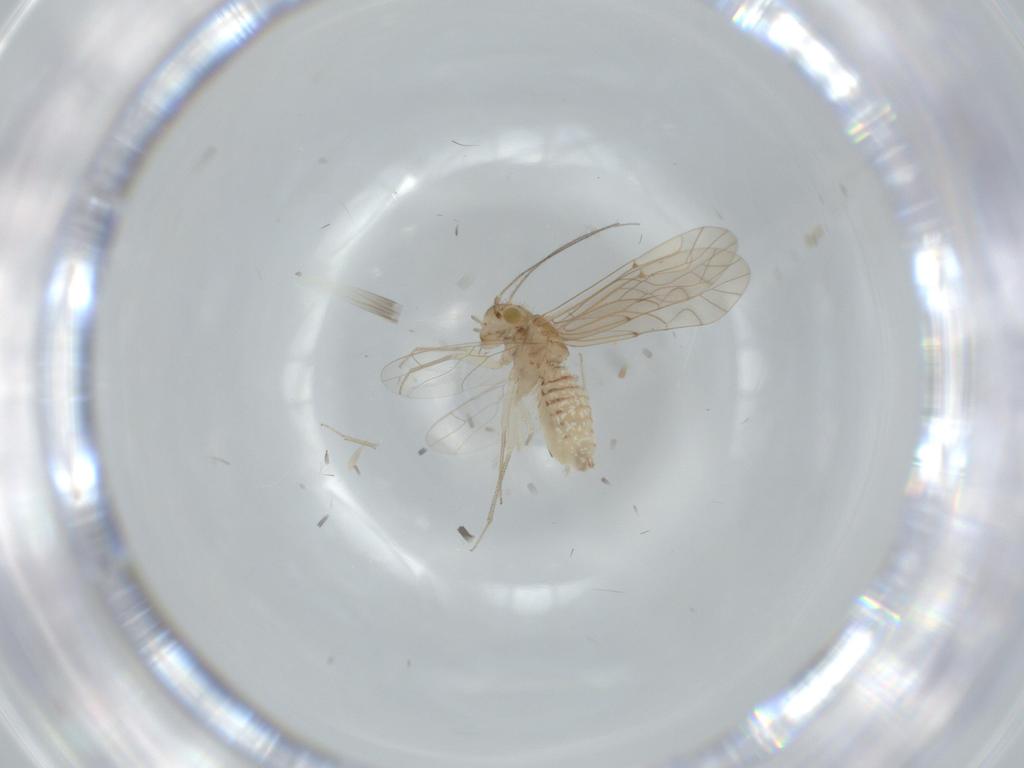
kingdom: Animalia
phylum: Arthropoda
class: Insecta
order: Psocodea
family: Lachesillidae
